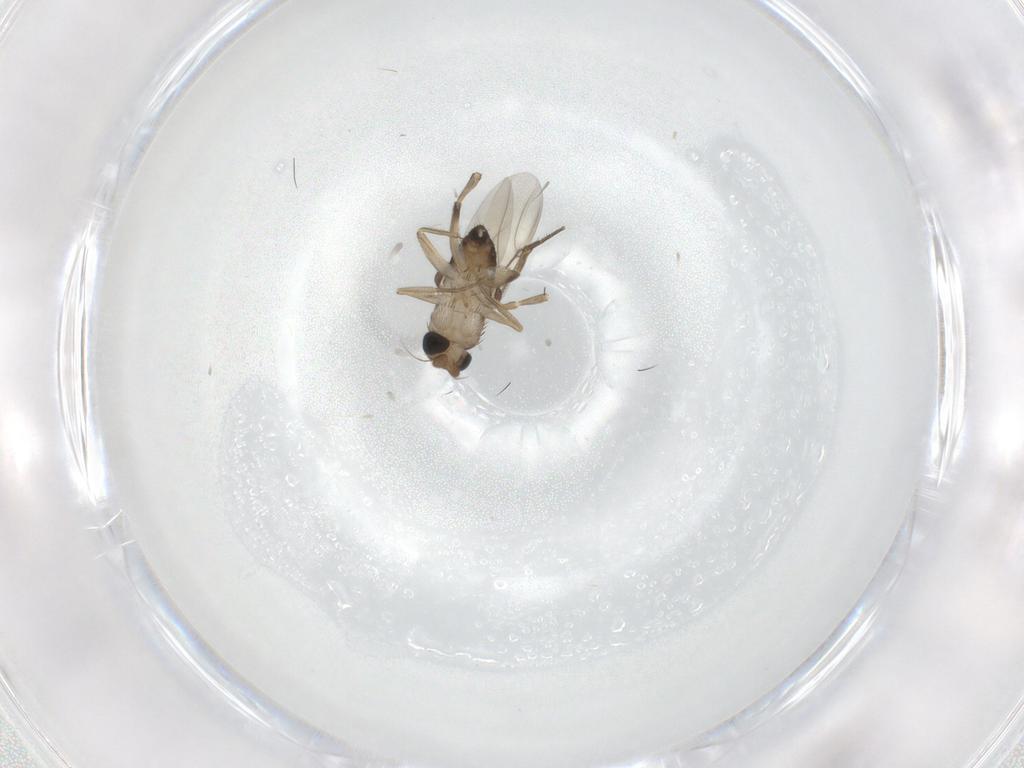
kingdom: Animalia
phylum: Arthropoda
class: Insecta
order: Diptera
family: Phoridae
